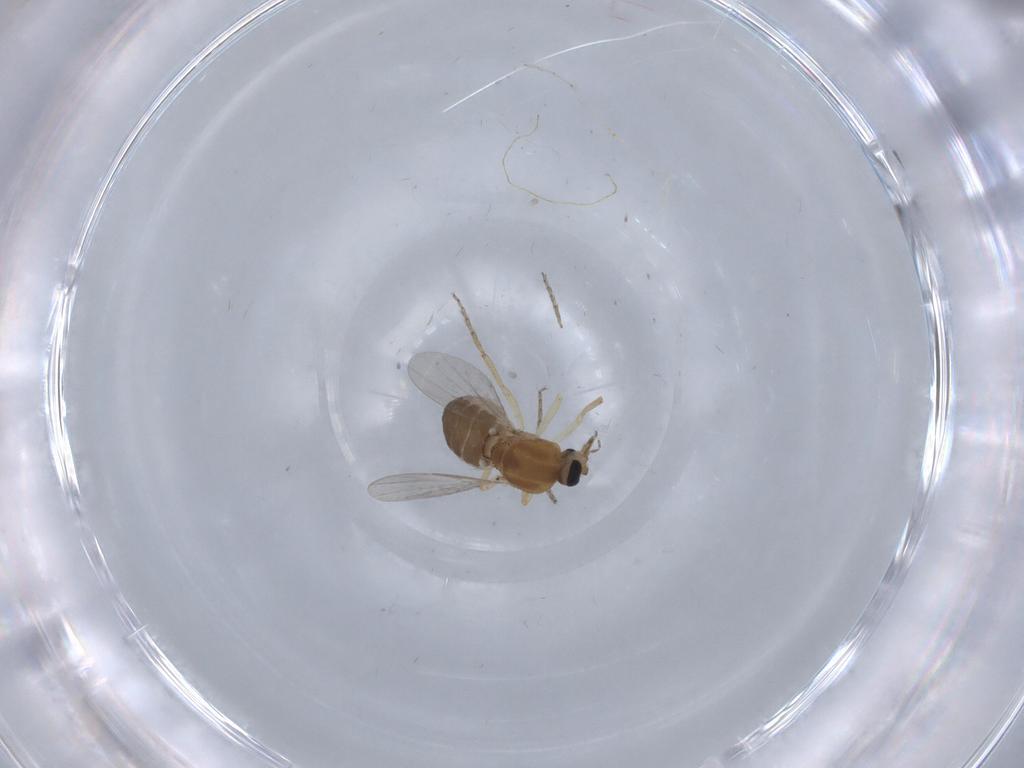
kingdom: Animalia
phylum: Arthropoda
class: Insecta
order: Diptera
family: Ceratopogonidae
